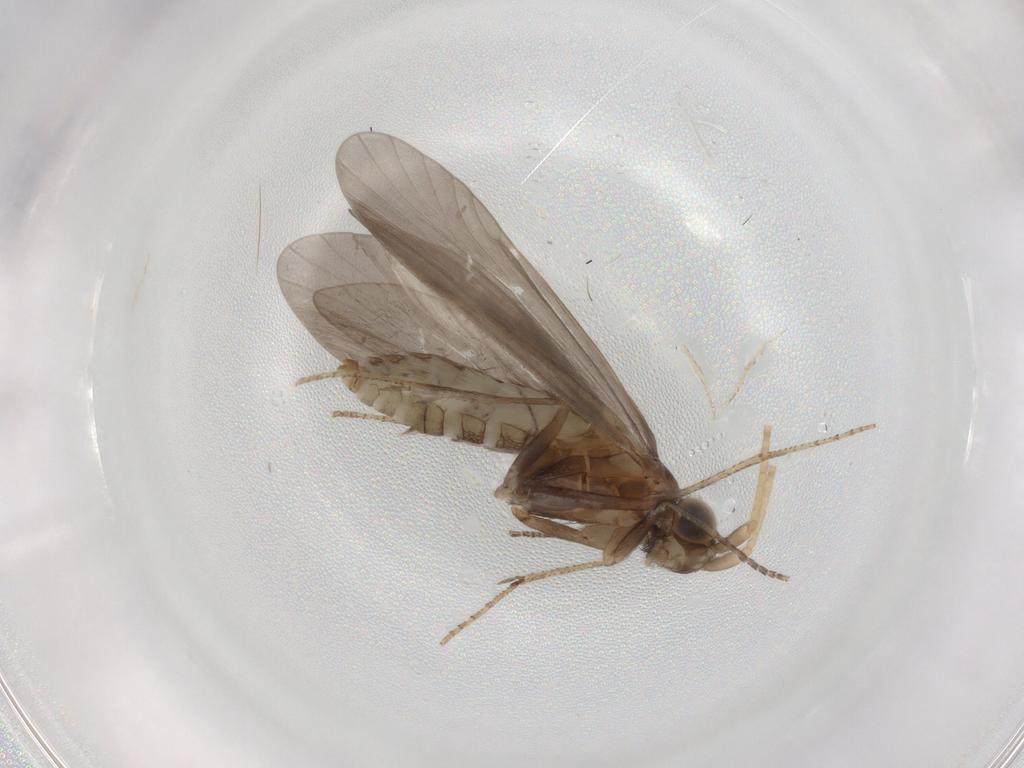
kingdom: Animalia
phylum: Arthropoda
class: Insecta
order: Trichoptera
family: Helicopsychidae
